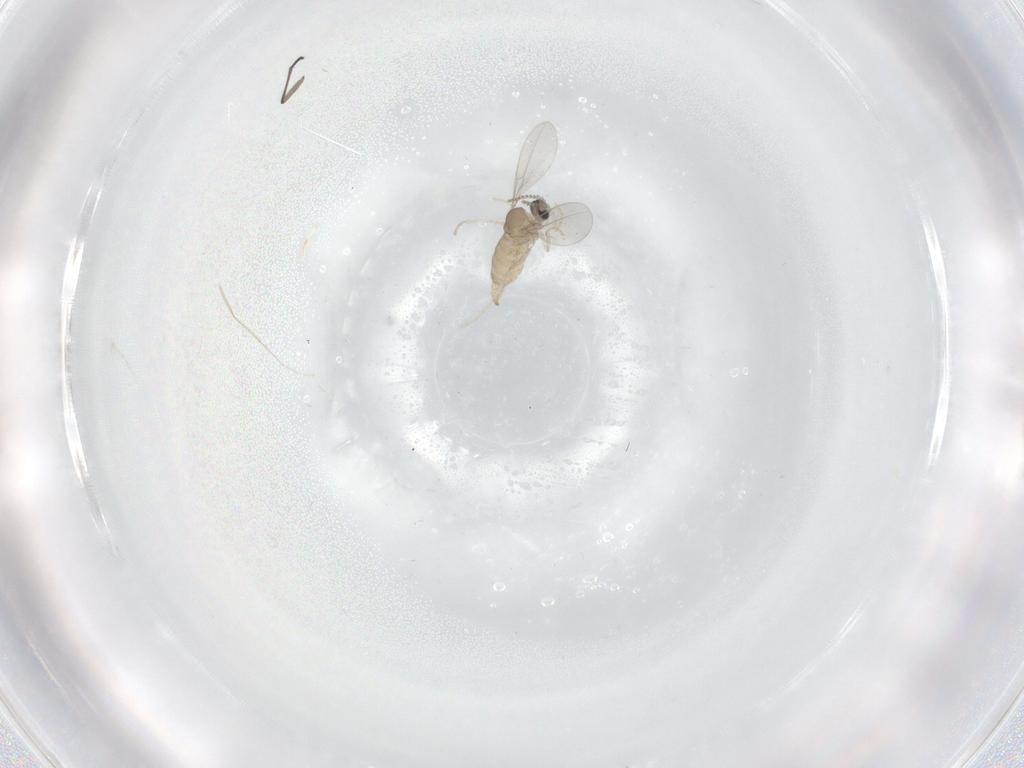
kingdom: Animalia
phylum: Arthropoda
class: Insecta
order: Diptera
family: Cecidomyiidae
